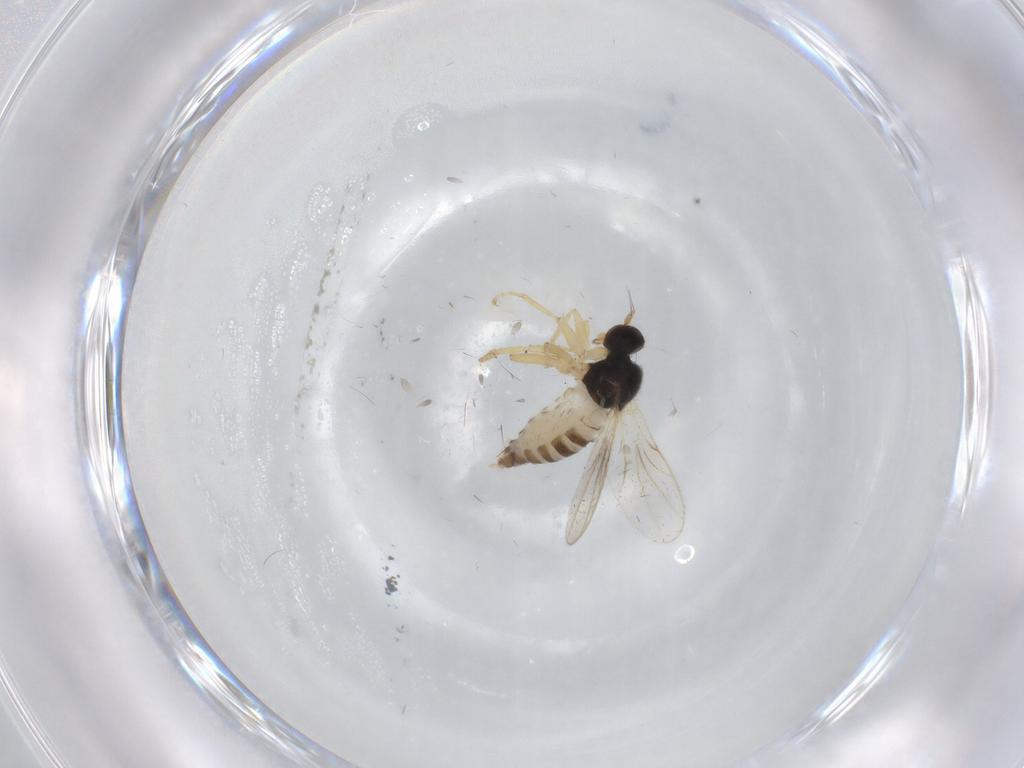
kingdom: Animalia
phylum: Arthropoda
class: Insecta
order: Diptera
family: Hybotidae
